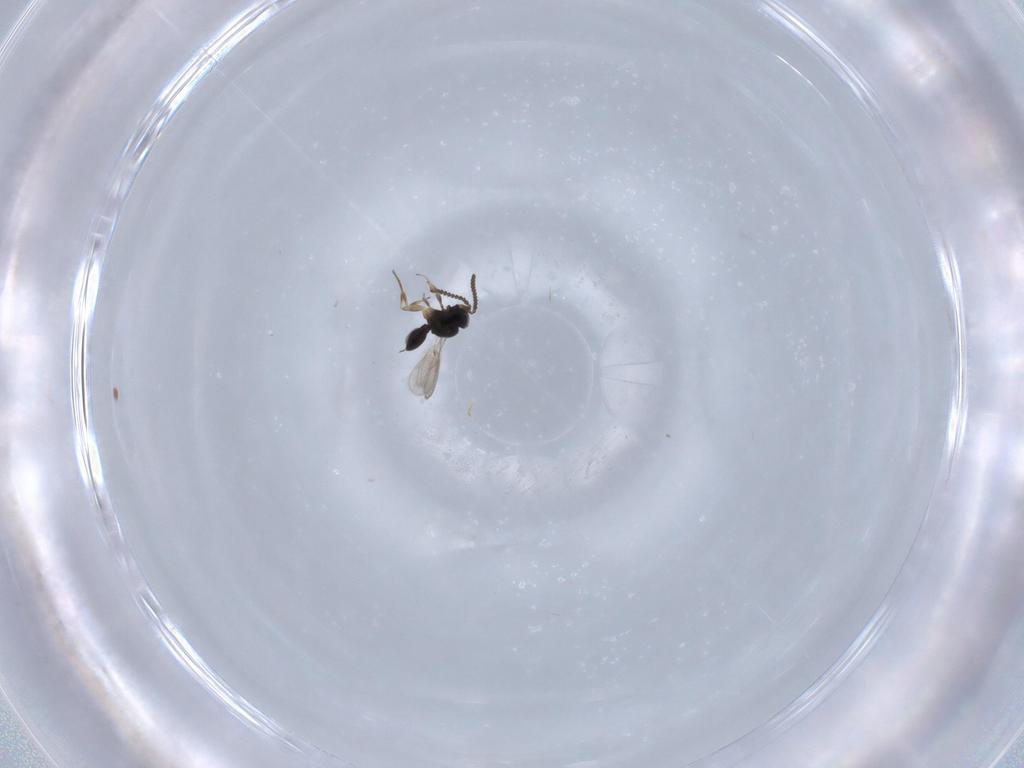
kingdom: Animalia
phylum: Arthropoda
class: Insecta
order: Hymenoptera
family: Scelionidae
